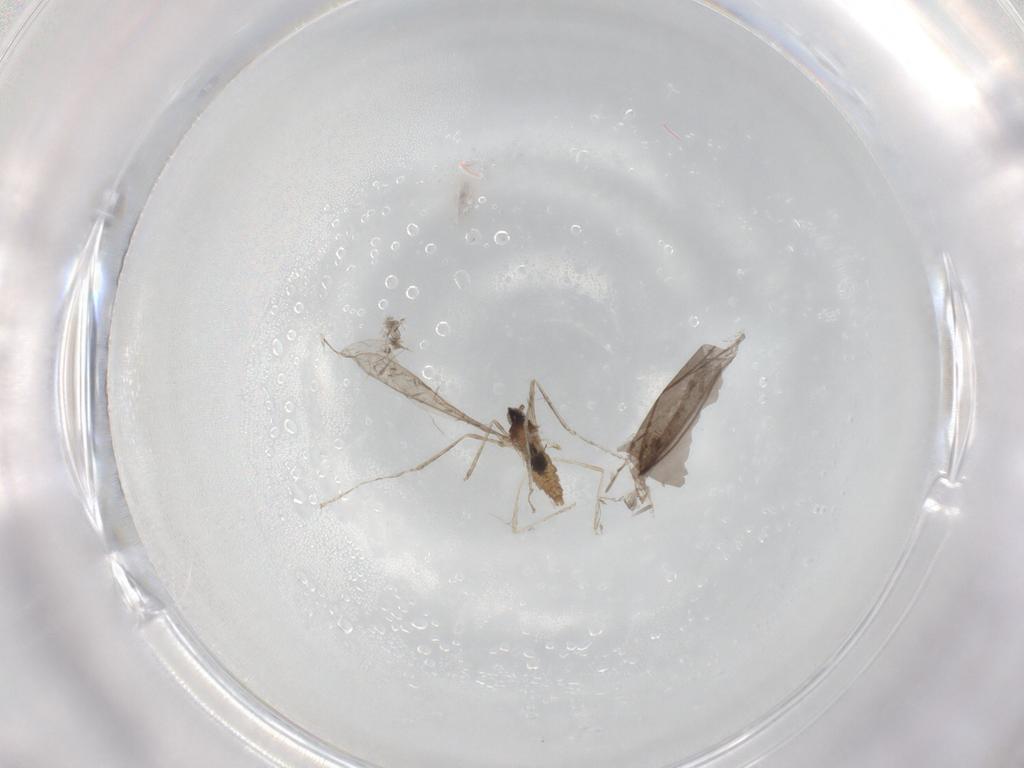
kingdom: Animalia
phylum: Arthropoda
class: Insecta
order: Diptera
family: Cecidomyiidae
